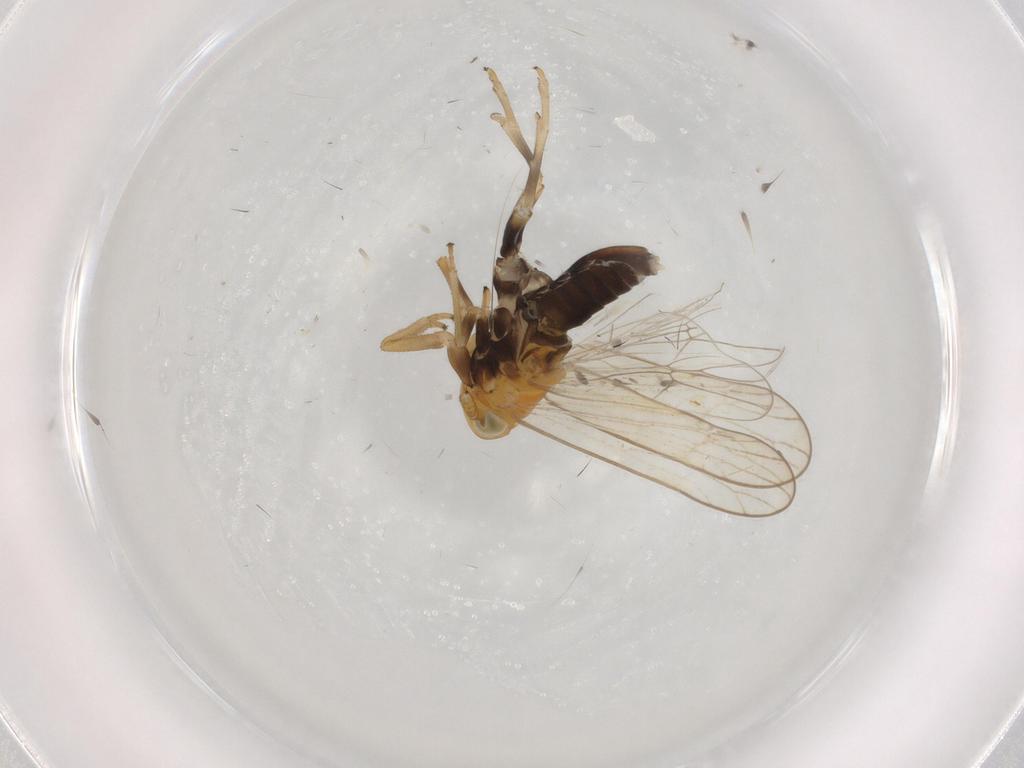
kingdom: Animalia
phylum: Arthropoda
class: Insecta
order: Hemiptera
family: Delphacidae
